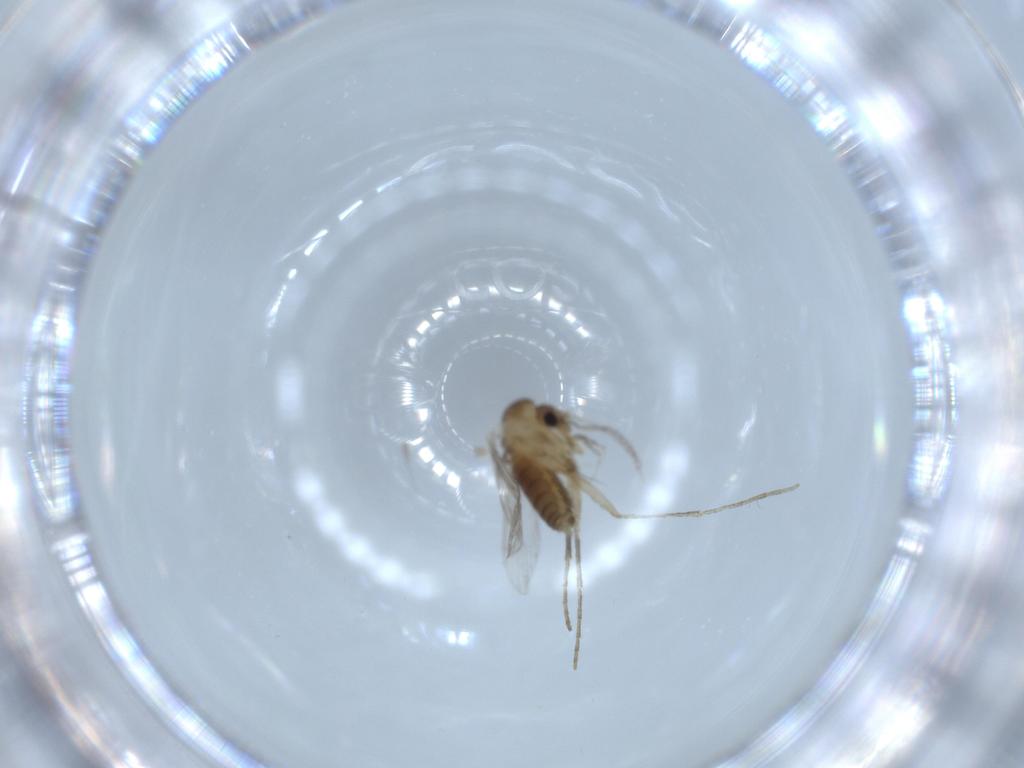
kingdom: Animalia
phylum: Arthropoda
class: Insecta
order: Diptera
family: Psychodidae
